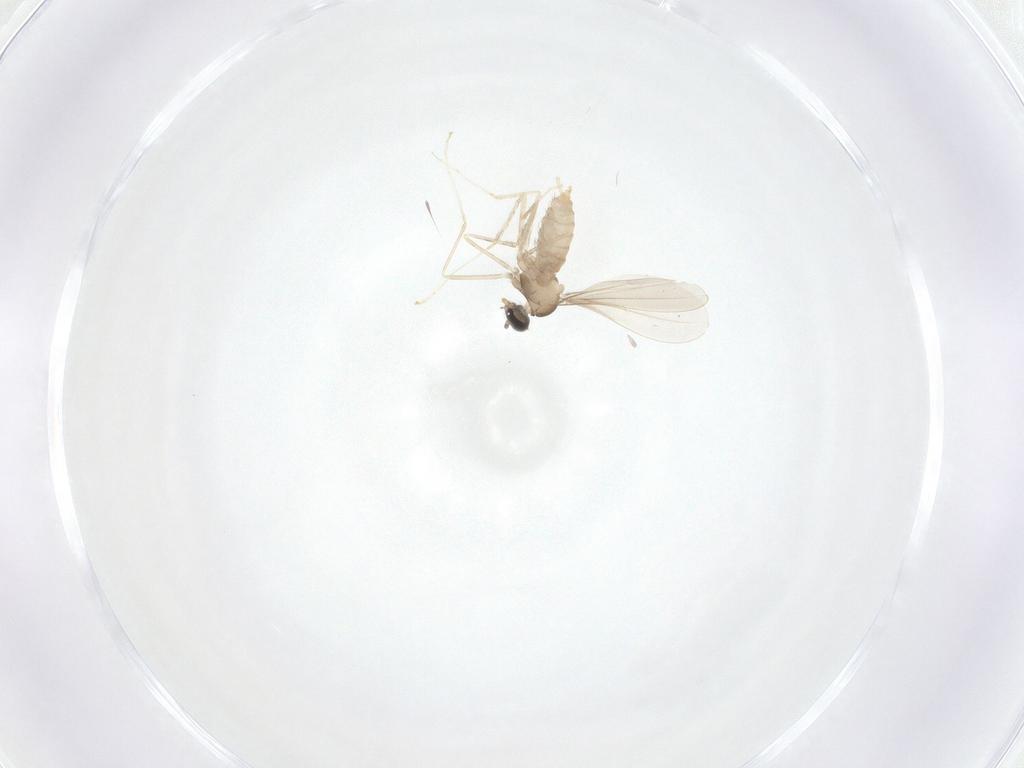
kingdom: Animalia
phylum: Arthropoda
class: Insecta
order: Diptera
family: Cecidomyiidae
